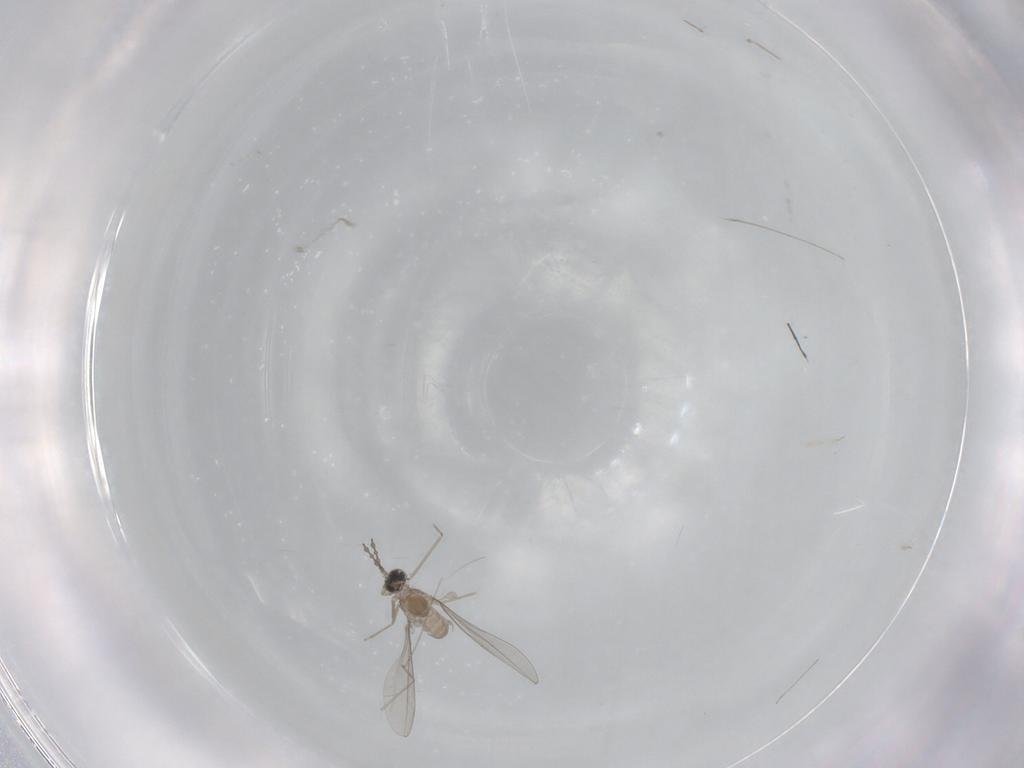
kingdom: Animalia
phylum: Arthropoda
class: Insecta
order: Diptera
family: Cecidomyiidae
